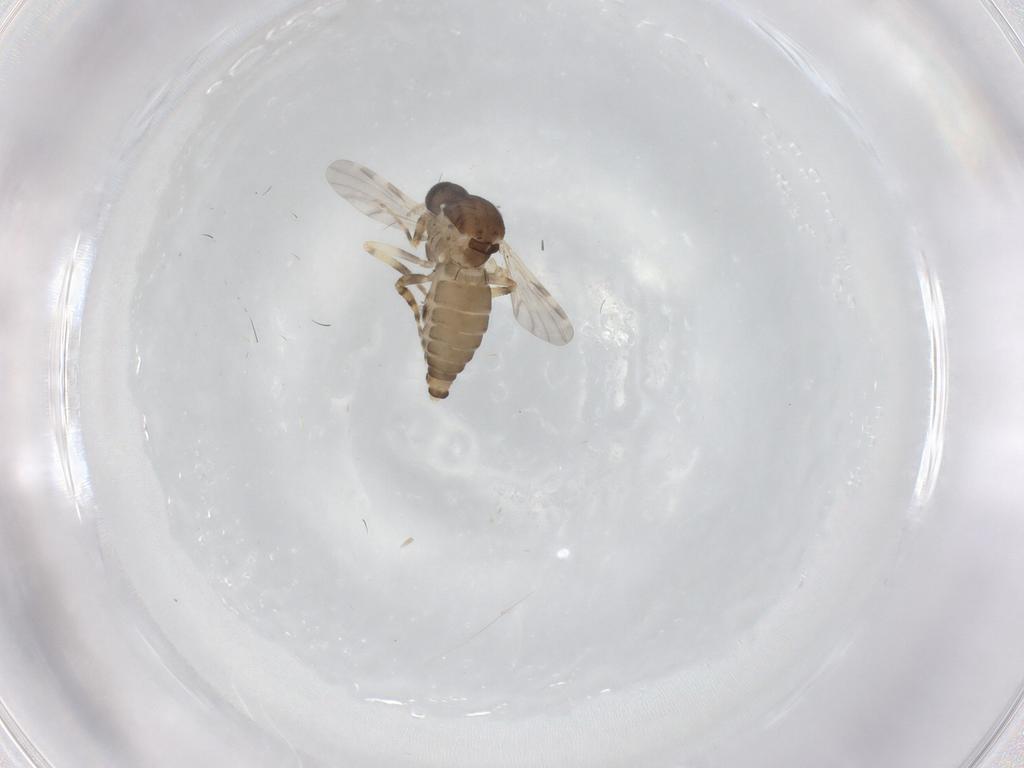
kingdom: Animalia
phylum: Arthropoda
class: Insecta
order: Diptera
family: Ceratopogonidae
